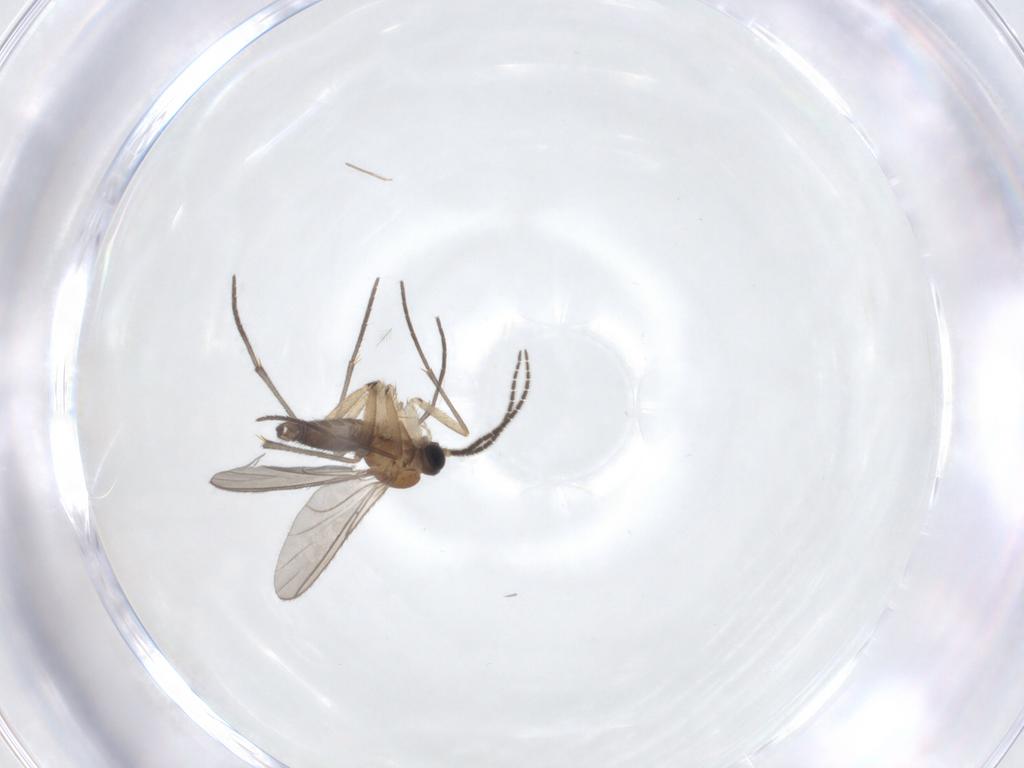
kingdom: Animalia
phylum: Arthropoda
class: Insecta
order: Diptera
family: Sciaridae
